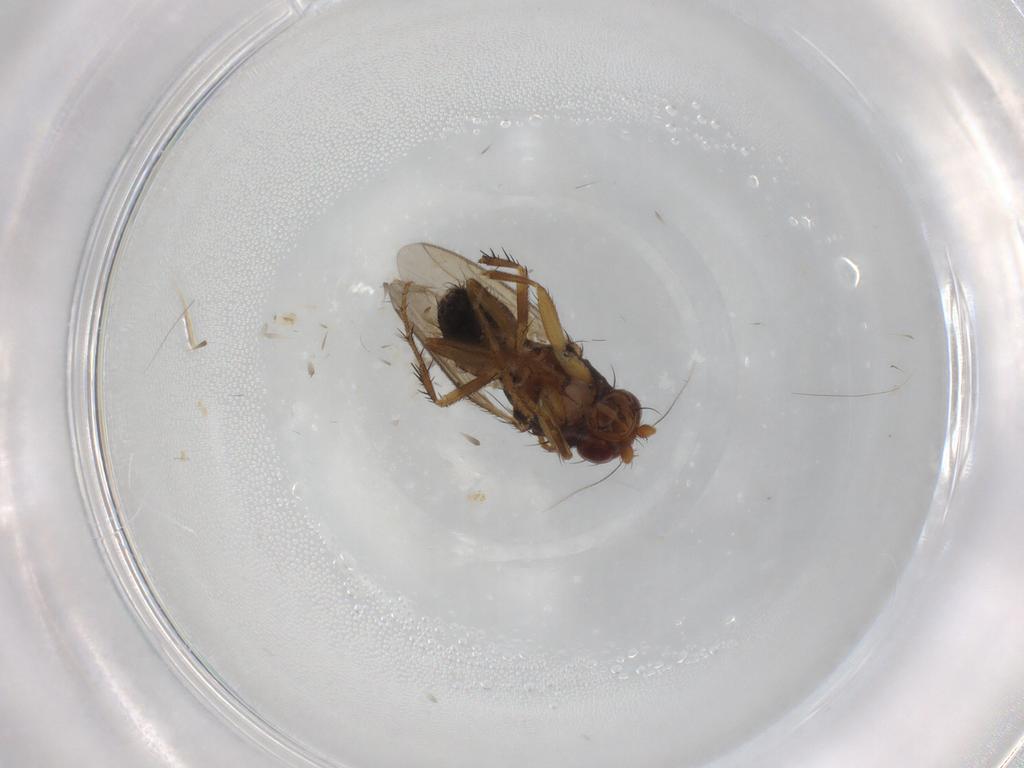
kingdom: Animalia
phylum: Arthropoda
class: Insecta
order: Diptera
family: Sphaeroceridae
